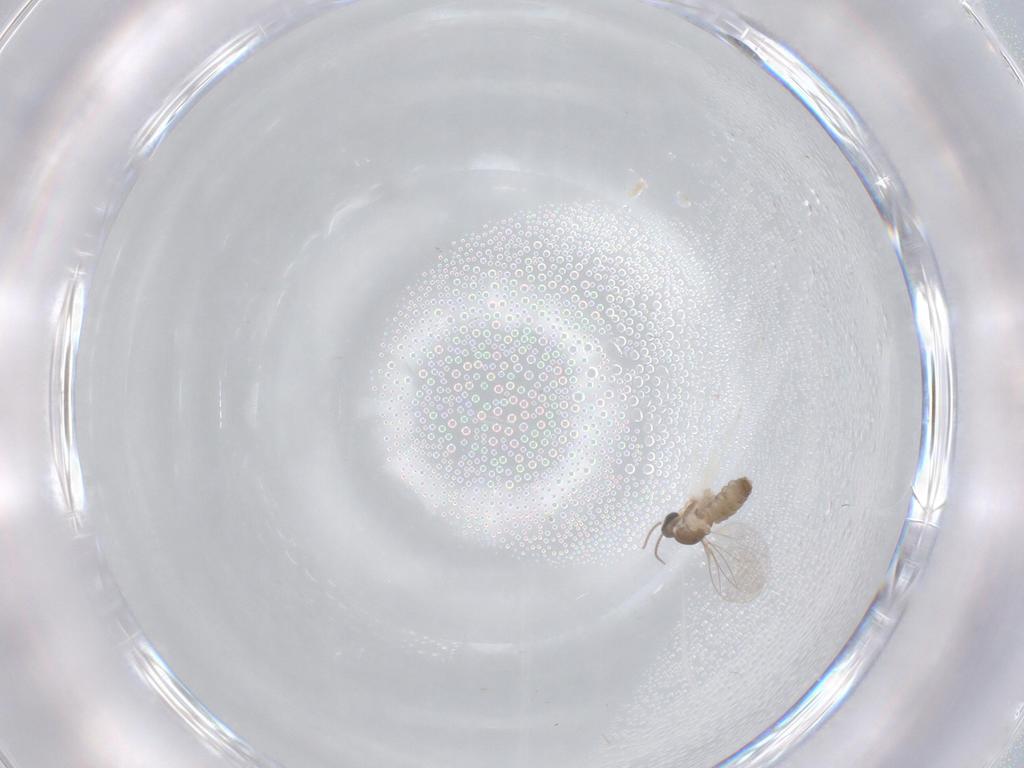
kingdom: Animalia
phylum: Arthropoda
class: Insecta
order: Diptera
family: Cecidomyiidae
